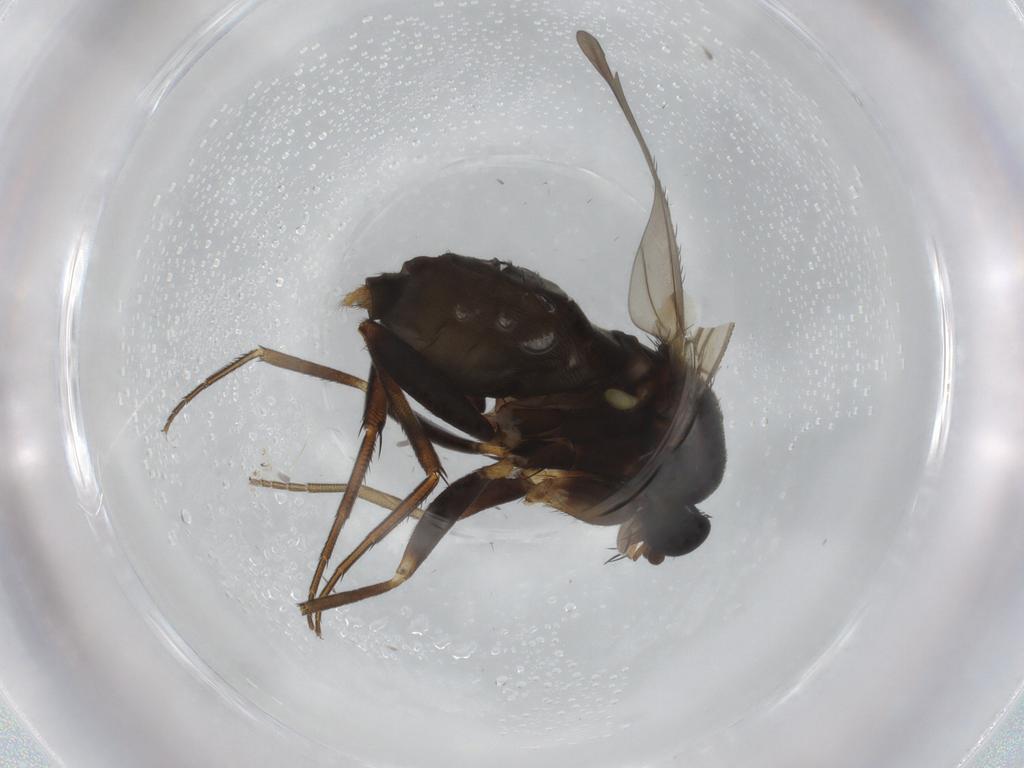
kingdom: Animalia
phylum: Arthropoda
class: Insecta
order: Diptera
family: Phoridae
